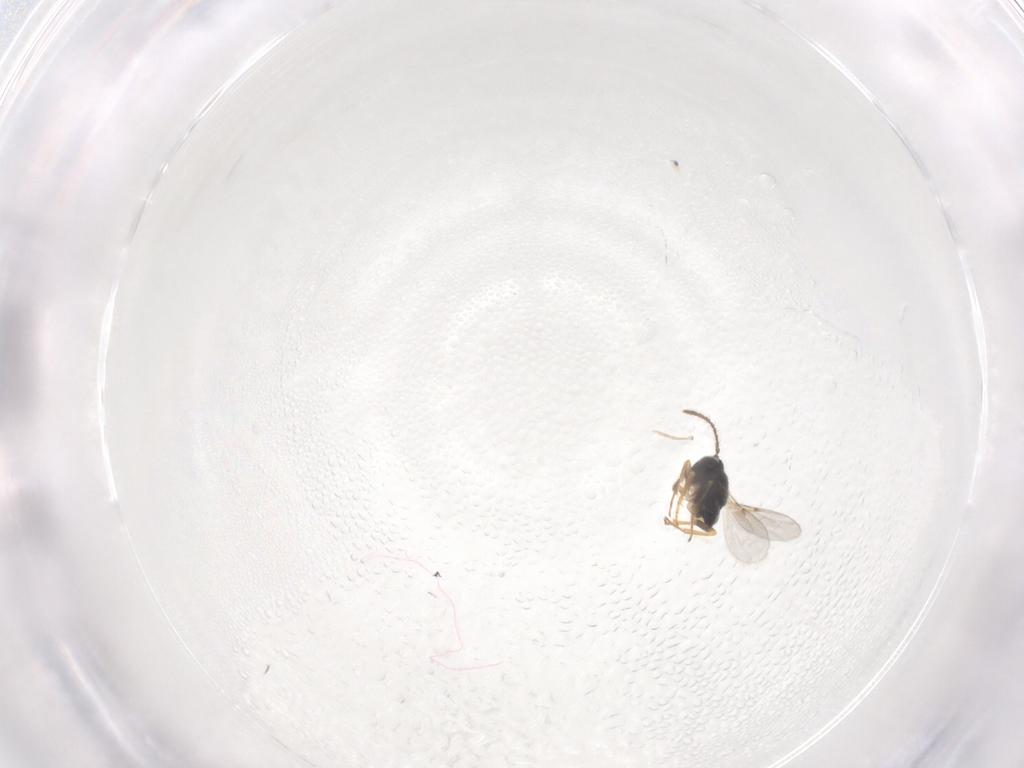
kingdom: Animalia
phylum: Arthropoda
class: Insecta
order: Hymenoptera
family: Encyrtidae
